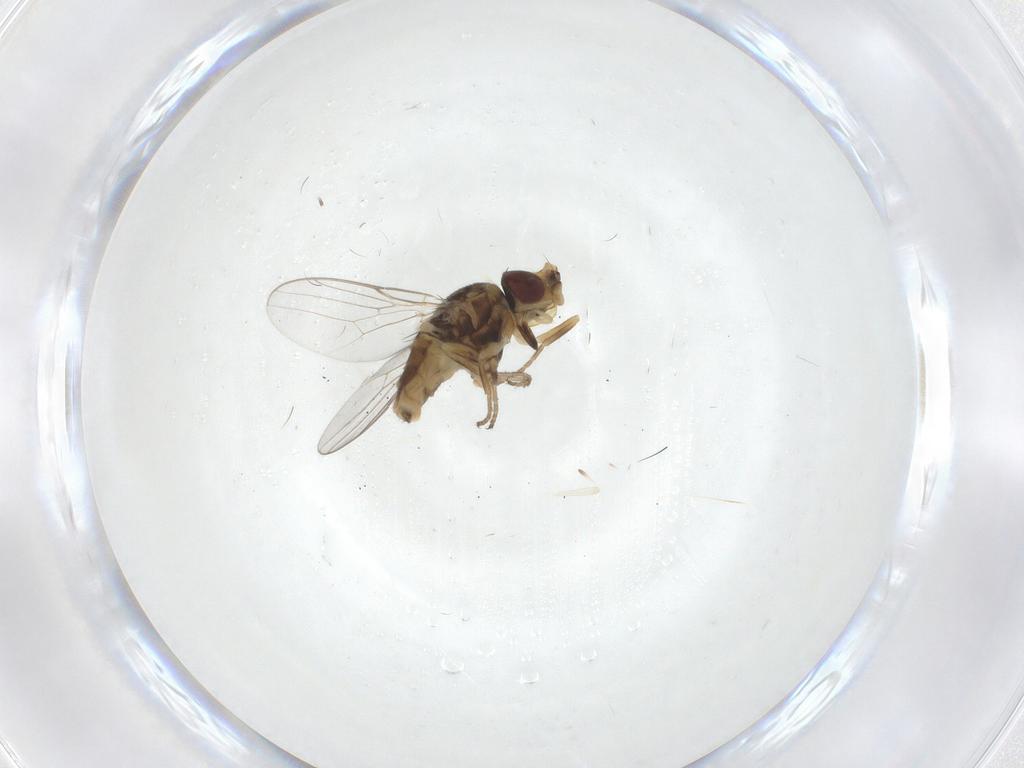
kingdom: Animalia
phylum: Arthropoda
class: Insecta
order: Diptera
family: Chloropidae
